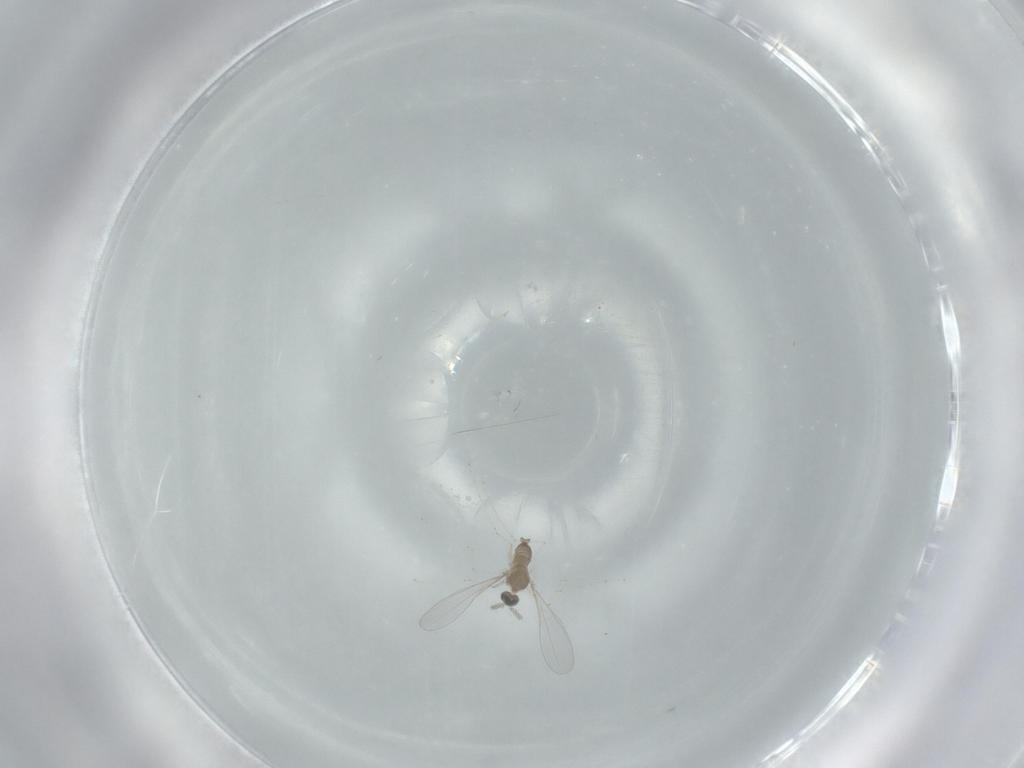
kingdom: Animalia
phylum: Arthropoda
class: Insecta
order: Diptera
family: Cecidomyiidae
